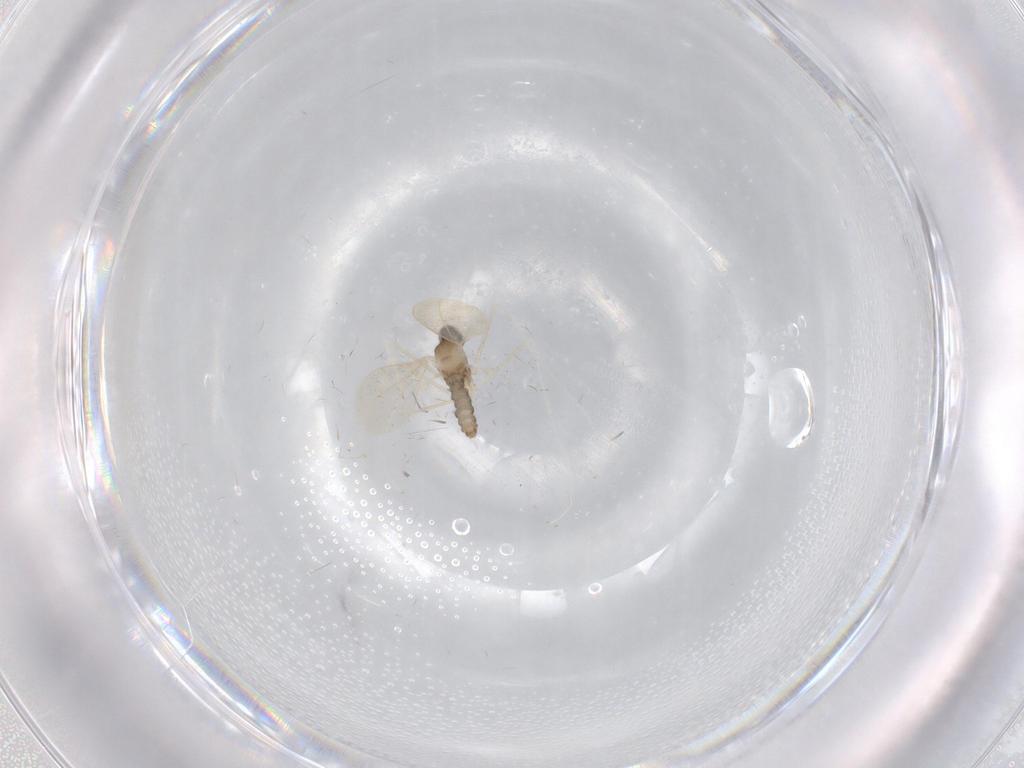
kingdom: Animalia
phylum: Arthropoda
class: Insecta
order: Diptera
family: Cecidomyiidae
